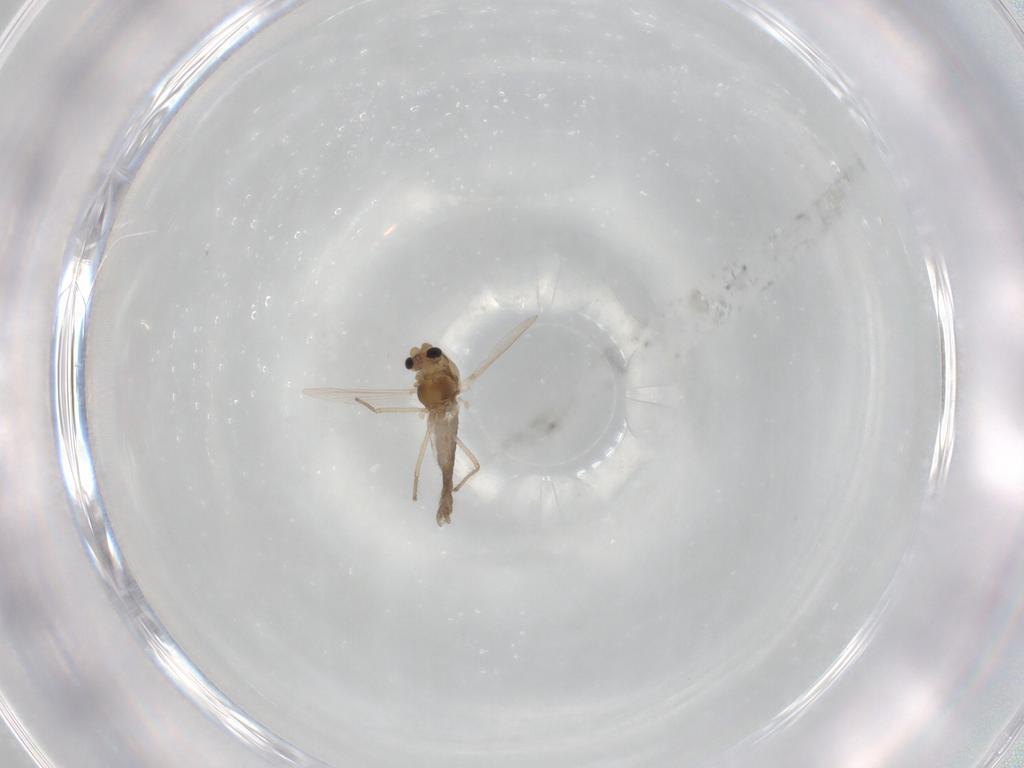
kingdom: Animalia
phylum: Arthropoda
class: Insecta
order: Diptera
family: Chironomidae
